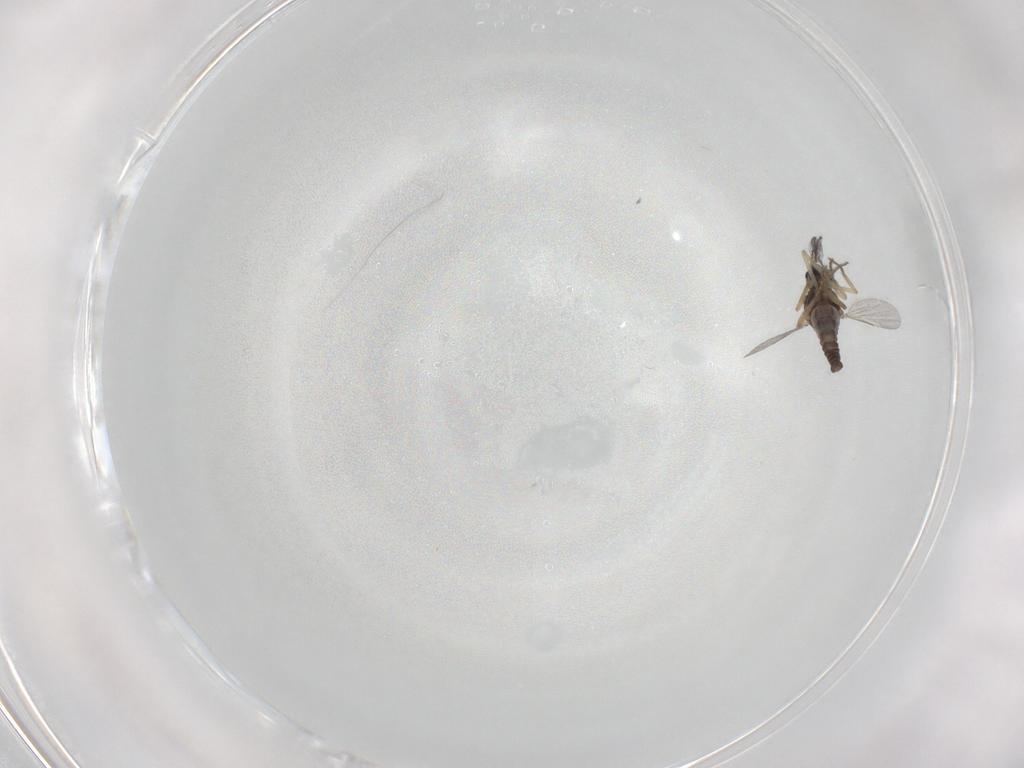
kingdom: Animalia
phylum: Arthropoda
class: Insecta
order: Diptera
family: Ceratopogonidae
